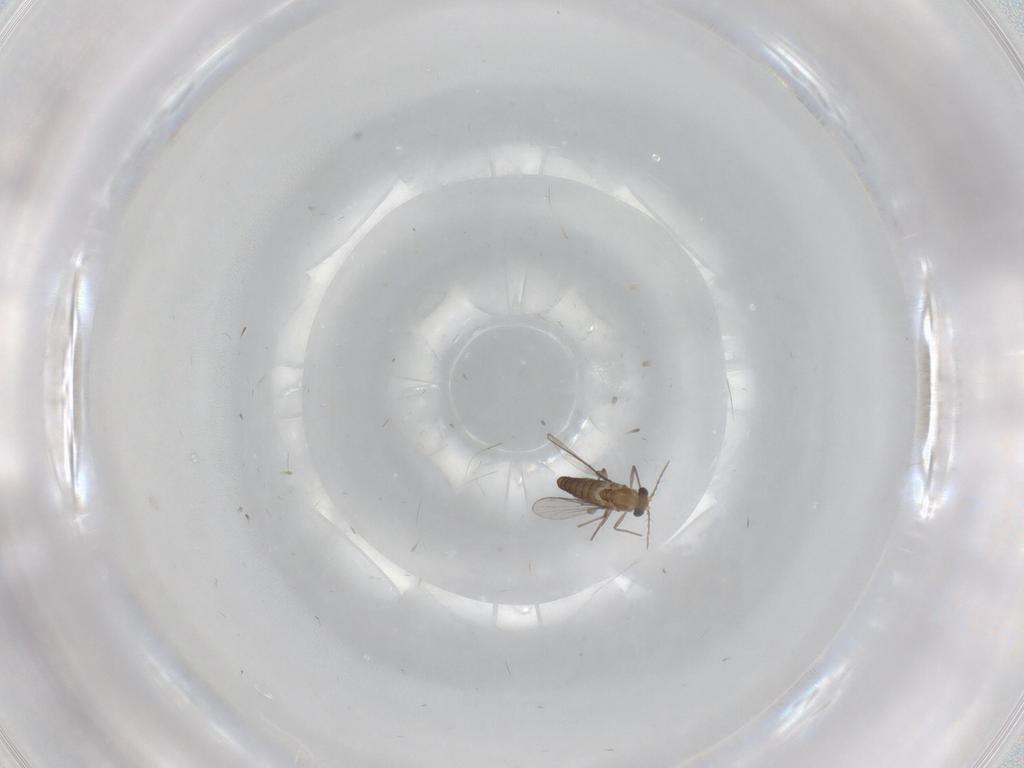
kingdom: Animalia
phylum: Arthropoda
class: Insecta
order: Diptera
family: Chironomidae
